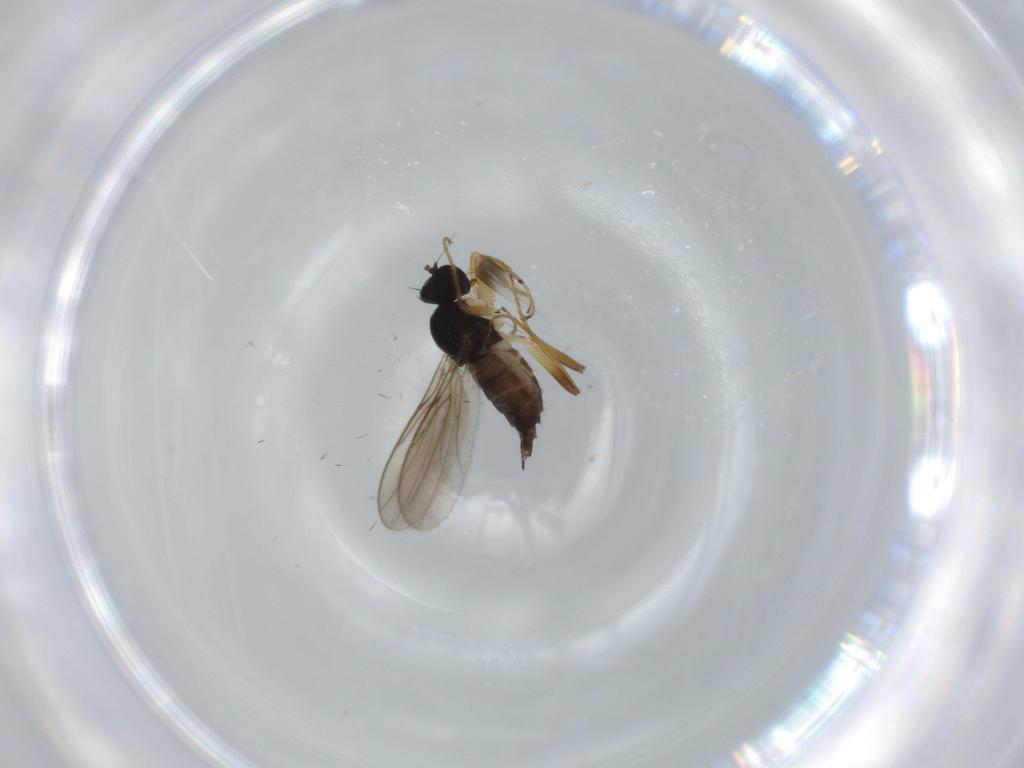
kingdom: Animalia
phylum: Arthropoda
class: Insecta
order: Diptera
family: Hybotidae
